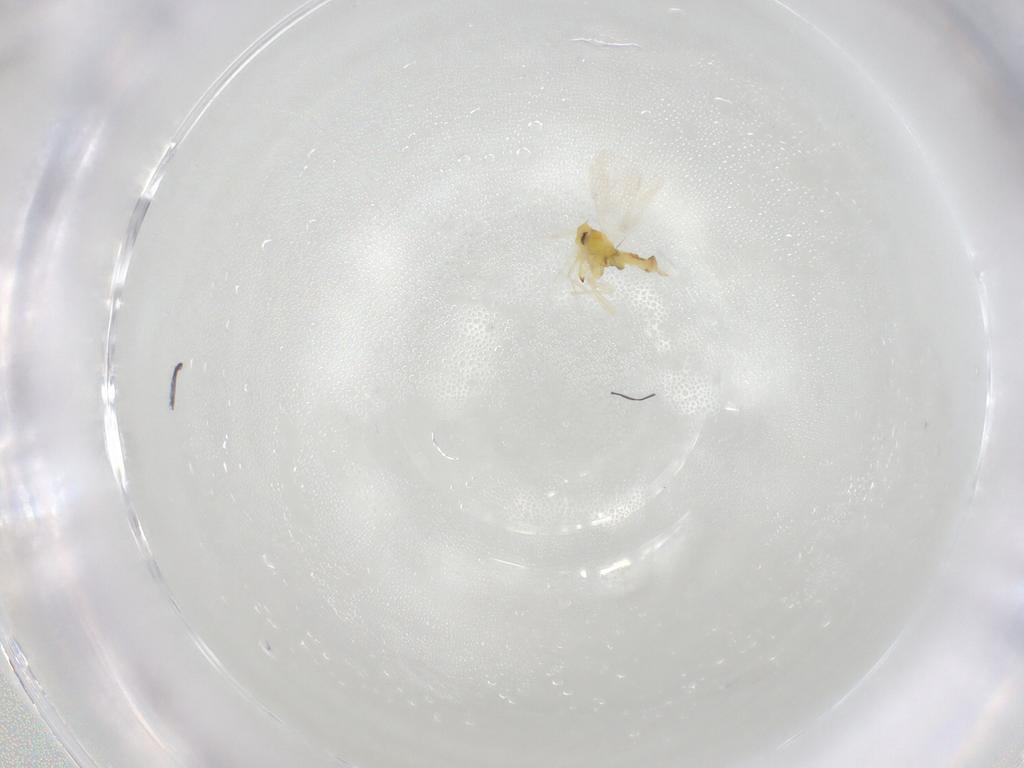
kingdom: Animalia
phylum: Arthropoda
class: Insecta
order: Hemiptera
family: Aleyrodidae
